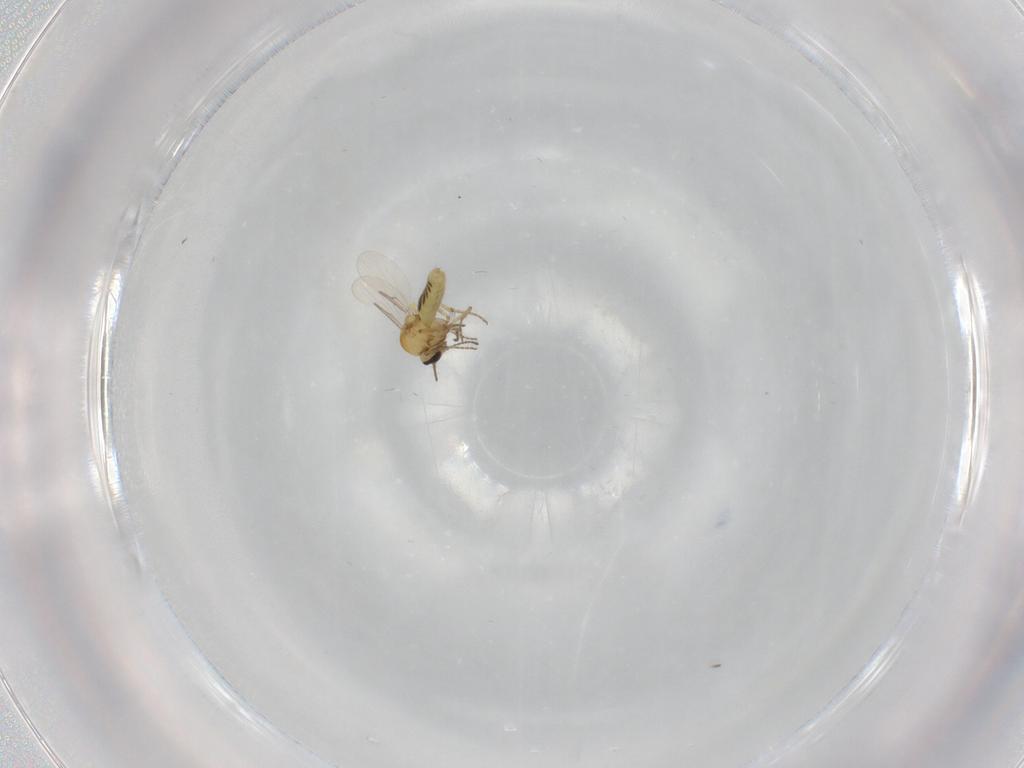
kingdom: Animalia
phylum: Arthropoda
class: Insecta
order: Diptera
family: Ceratopogonidae
